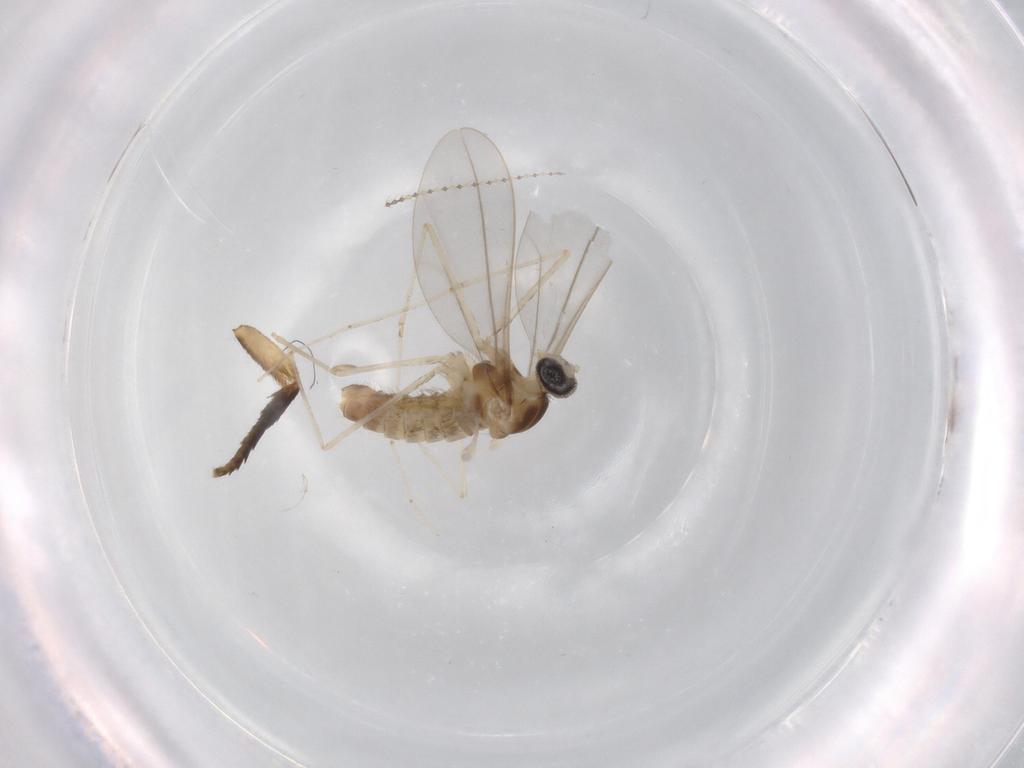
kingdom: Animalia
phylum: Arthropoda
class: Insecta
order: Diptera
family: Cecidomyiidae
